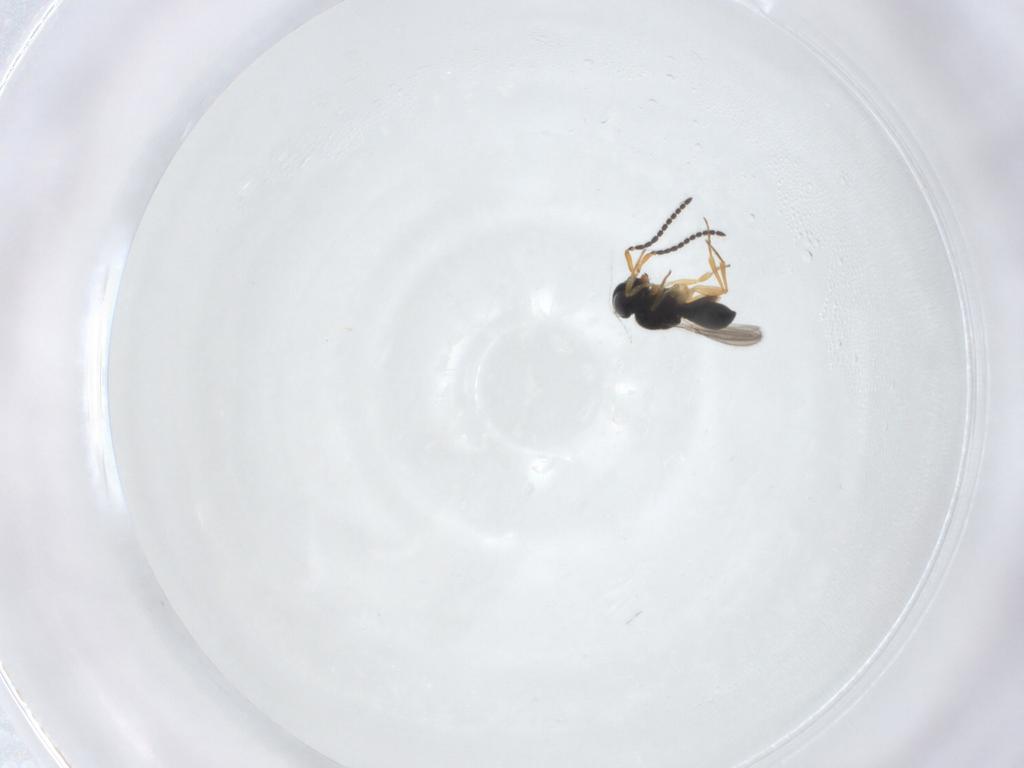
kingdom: Animalia
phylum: Arthropoda
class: Insecta
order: Hymenoptera
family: Scelionidae
